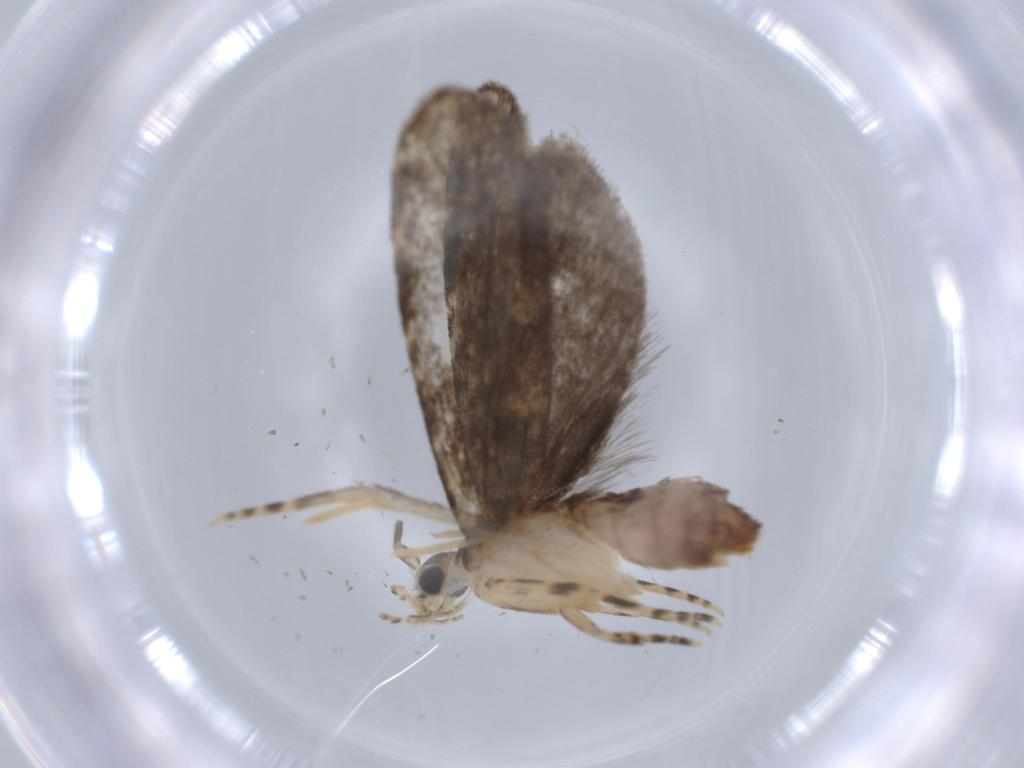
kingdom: Animalia
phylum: Arthropoda
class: Insecta
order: Lepidoptera
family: Tineidae
